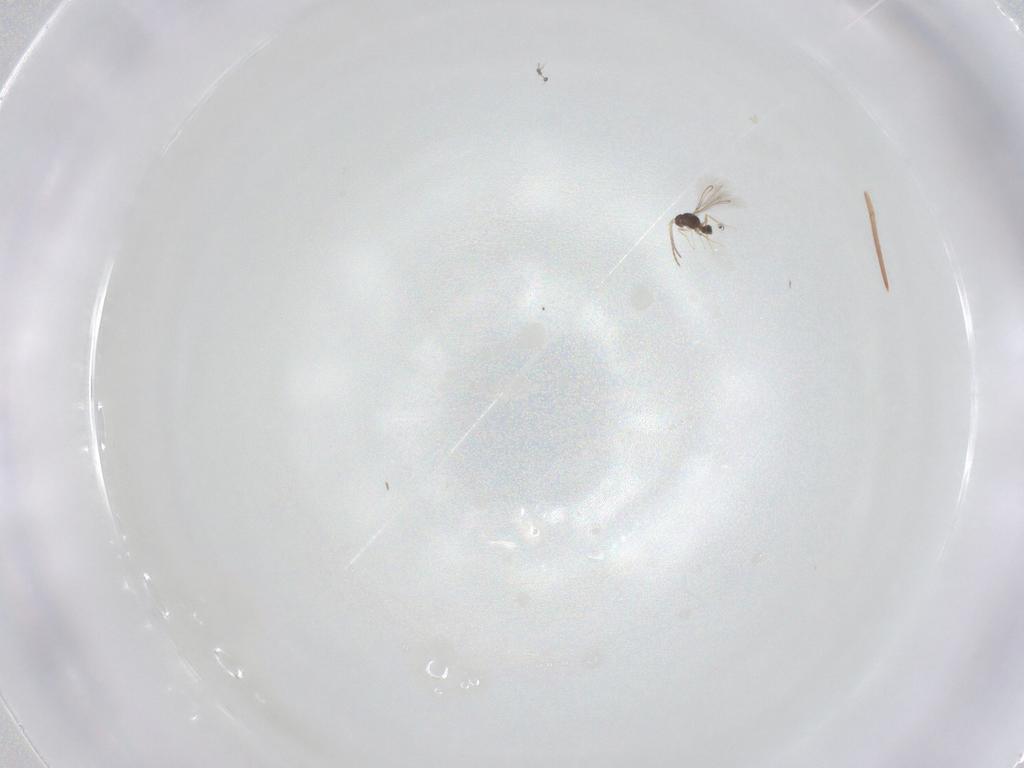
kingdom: Animalia
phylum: Arthropoda
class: Collembola
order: Entomobryomorpha
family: Entomobryidae
